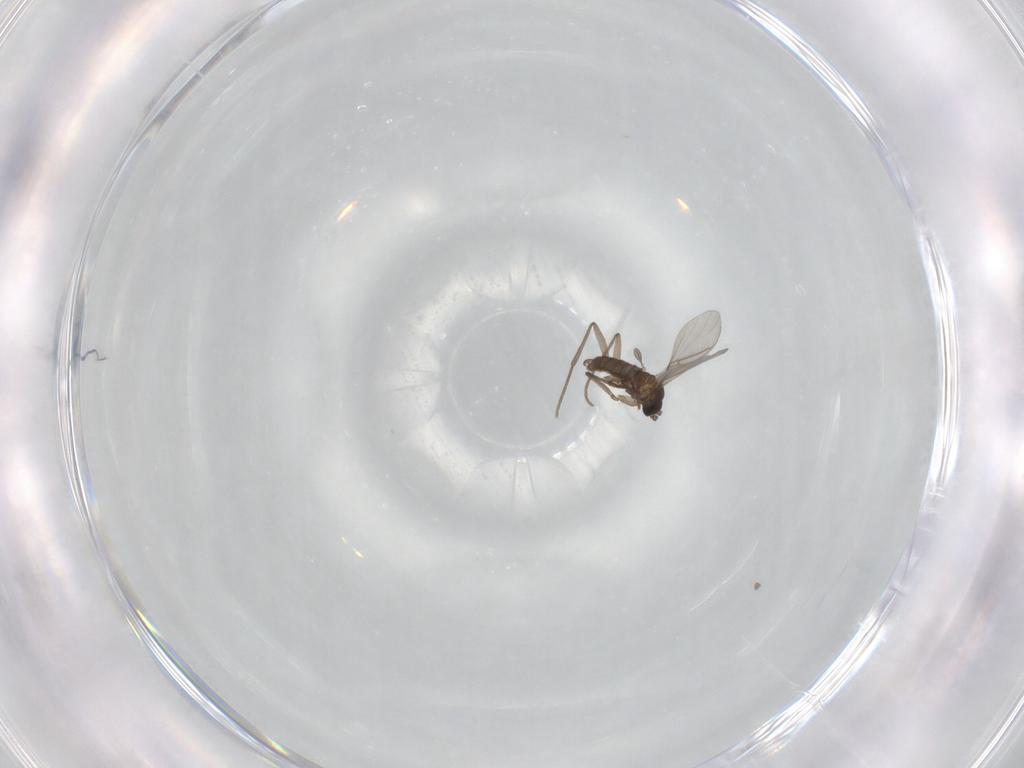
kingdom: Animalia
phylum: Arthropoda
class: Insecta
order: Diptera
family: Sciaridae
